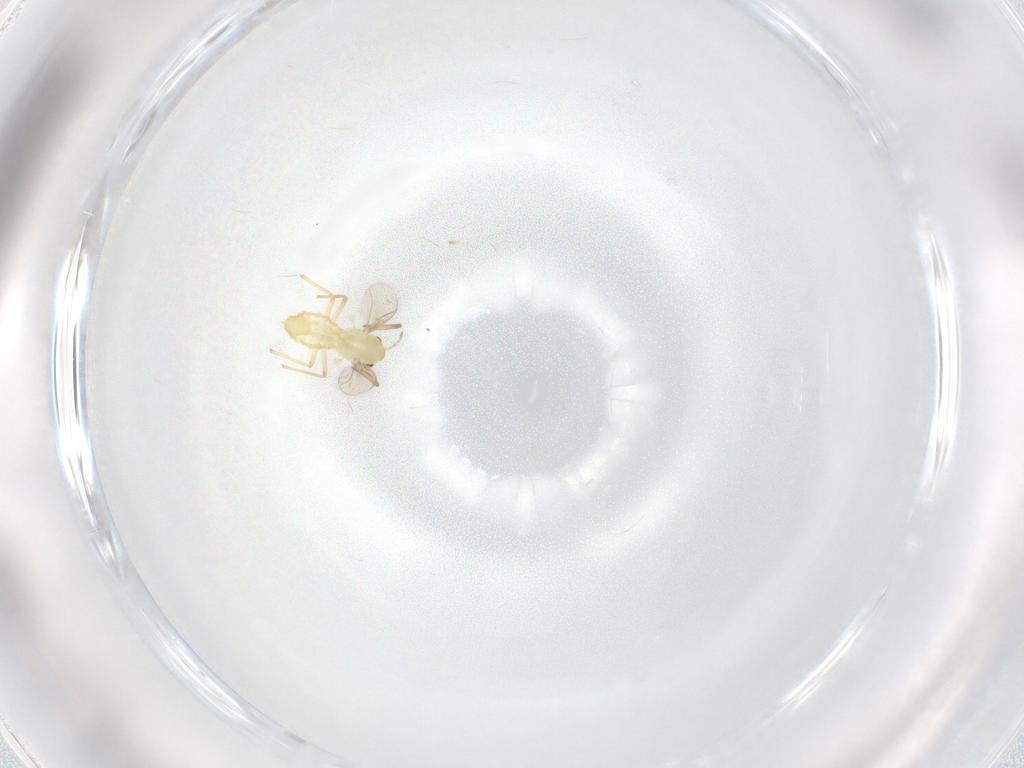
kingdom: Animalia
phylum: Arthropoda
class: Insecta
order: Diptera
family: Chironomidae
